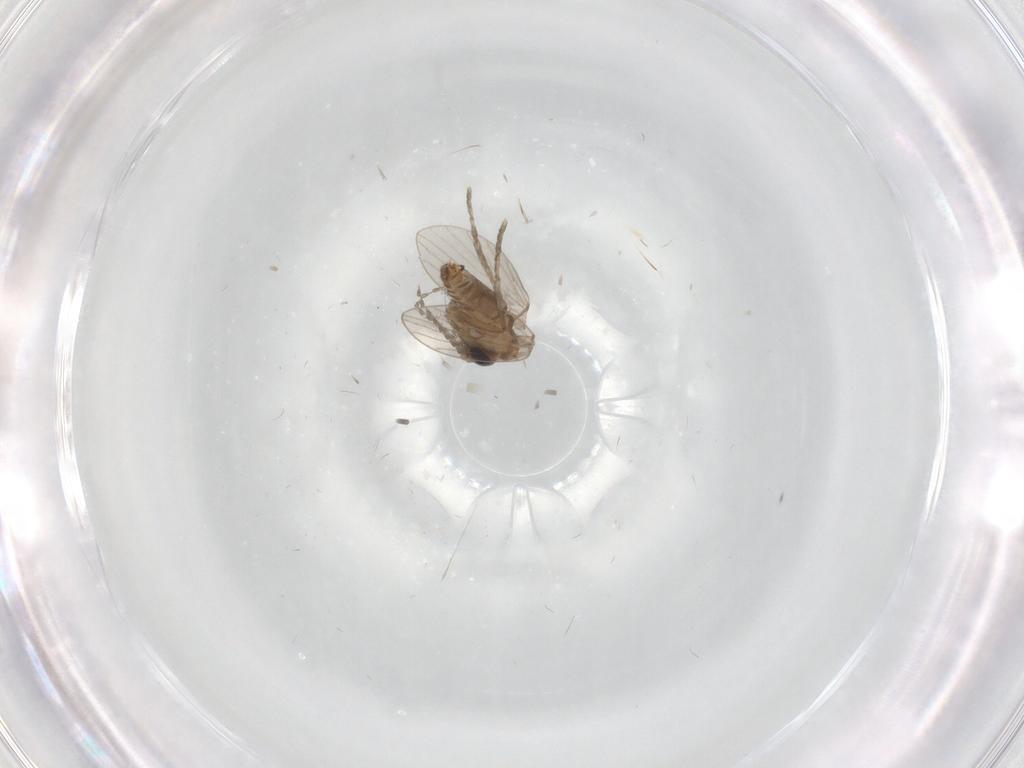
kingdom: Animalia
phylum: Arthropoda
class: Insecta
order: Diptera
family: Psychodidae
